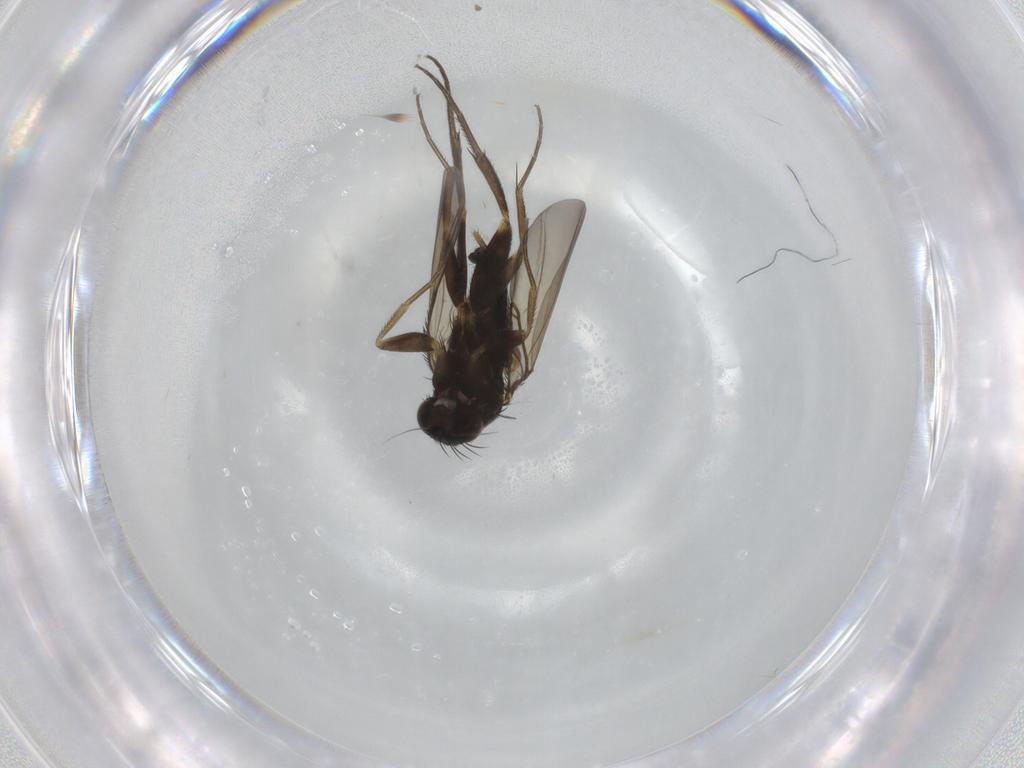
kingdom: Animalia
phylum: Arthropoda
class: Insecta
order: Diptera
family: Phoridae
